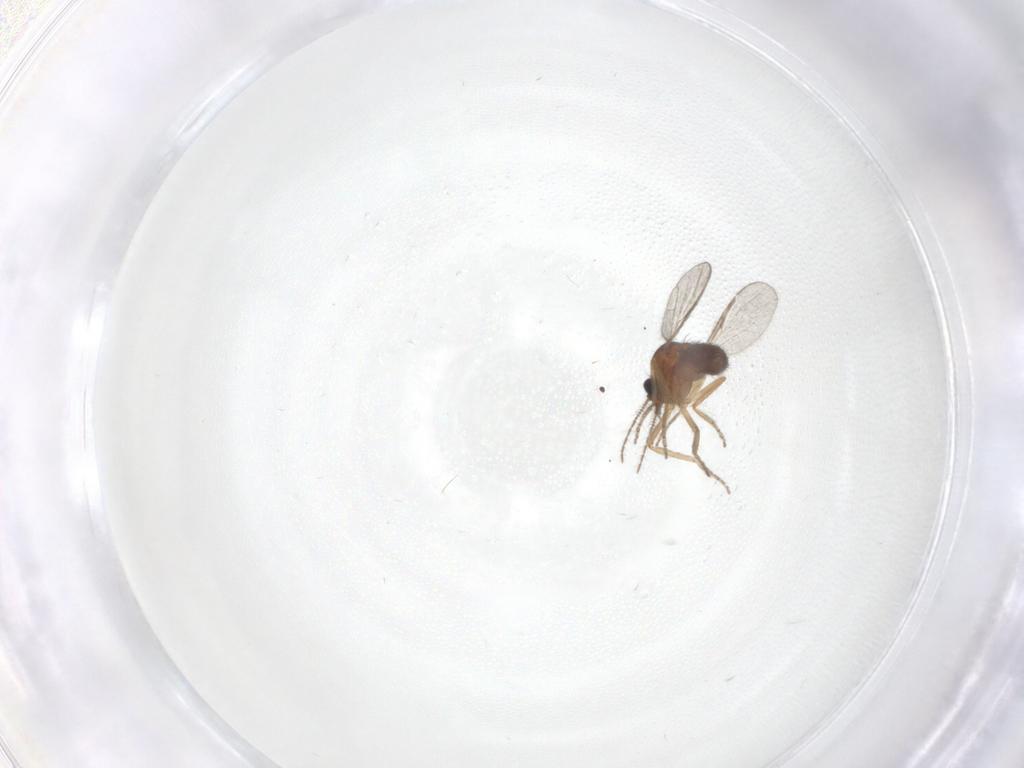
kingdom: Animalia
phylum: Arthropoda
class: Insecta
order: Diptera
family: Ceratopogonidae
